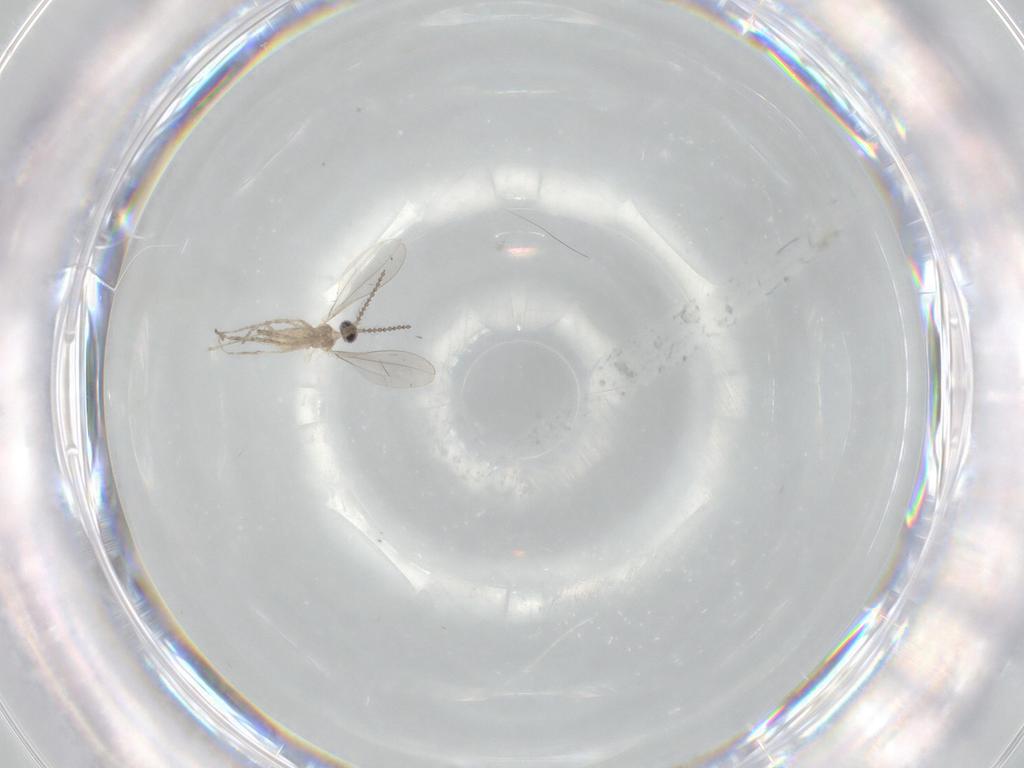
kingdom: Animalia
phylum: Arthropoda
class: Insecta
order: Diptera
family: Cecidomyiidae
